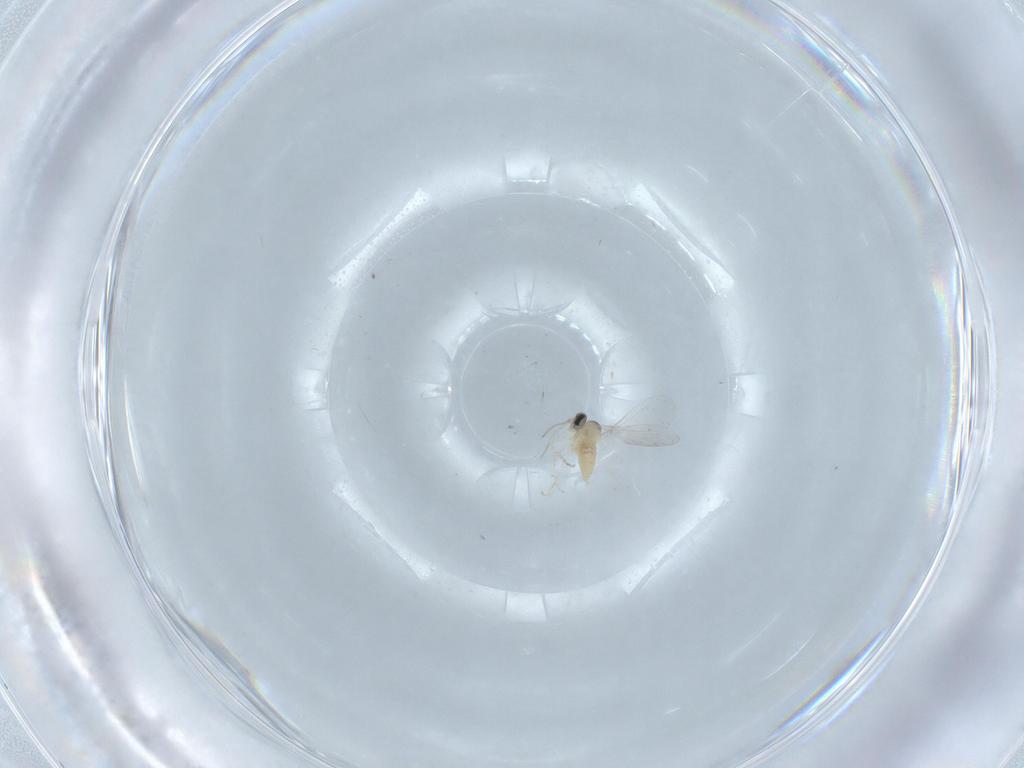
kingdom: Animalia
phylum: Arthropoda
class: Insecta
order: Diptera
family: Cecidomyiidae
